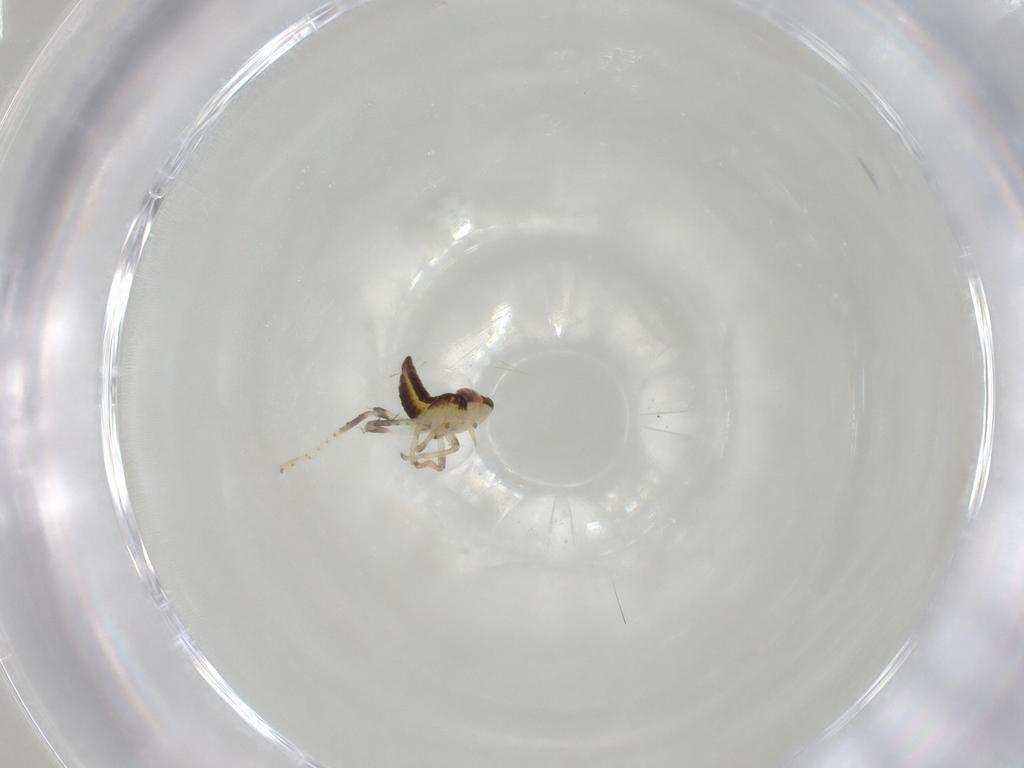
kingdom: Animalia
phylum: Arthropoda
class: Insecta
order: Hemiptera
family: Cicadellidae
